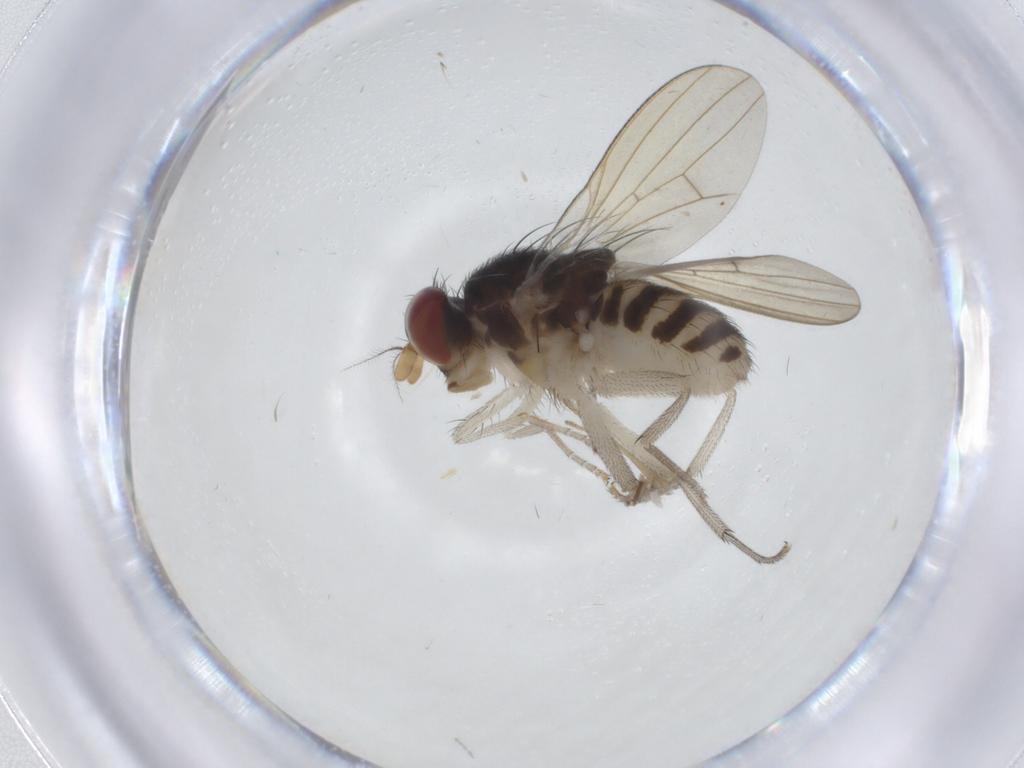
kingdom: Animalia
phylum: Arthropoda
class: Insecta
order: Diptera
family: Limoniidae
